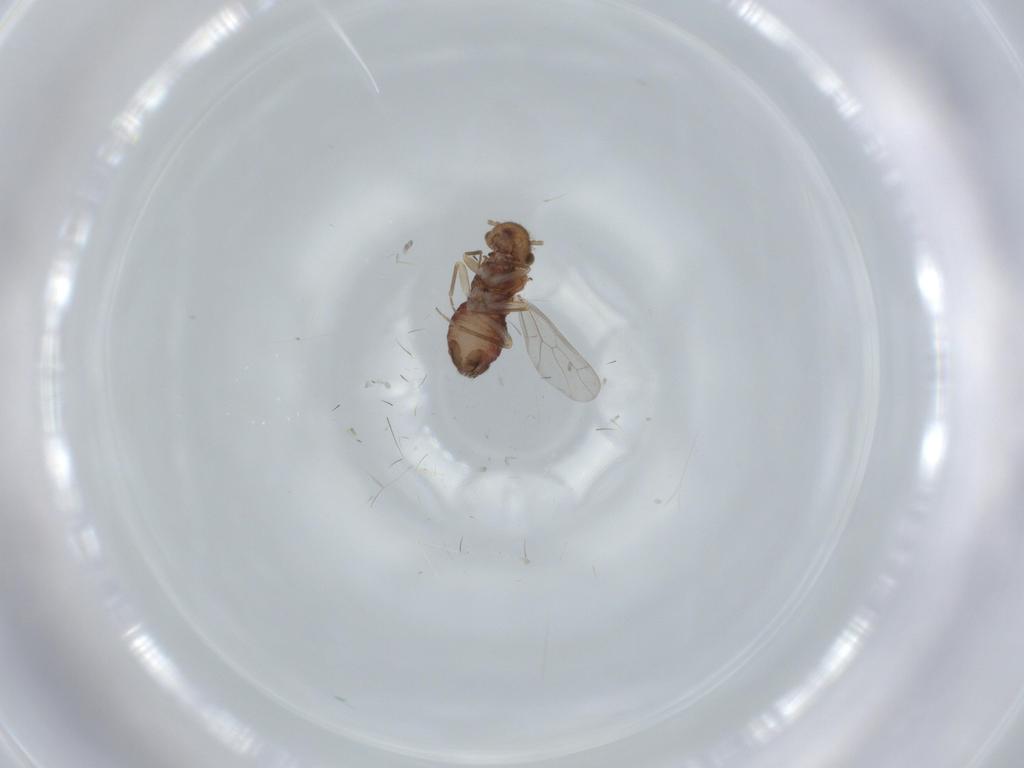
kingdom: Animalia
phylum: Arthropoda
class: Insecta
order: Psocodea
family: Ectopsocidae
